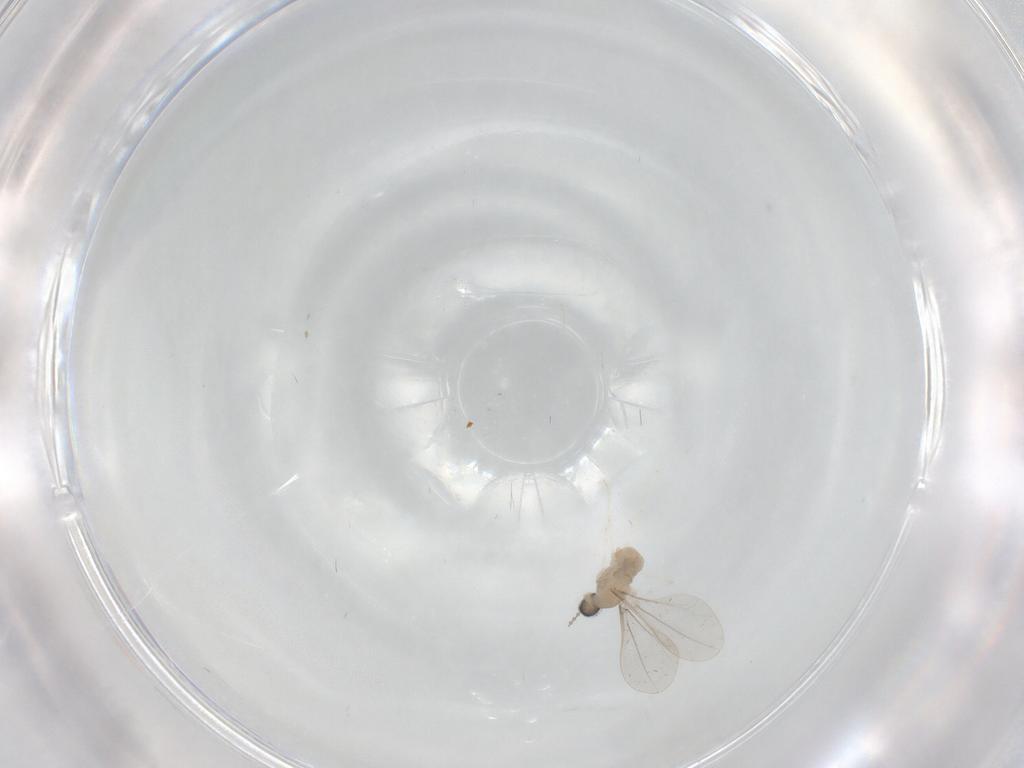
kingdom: Animalia
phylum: Arthropoda
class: Insecta
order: Diptera
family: Cecidomyiidae
